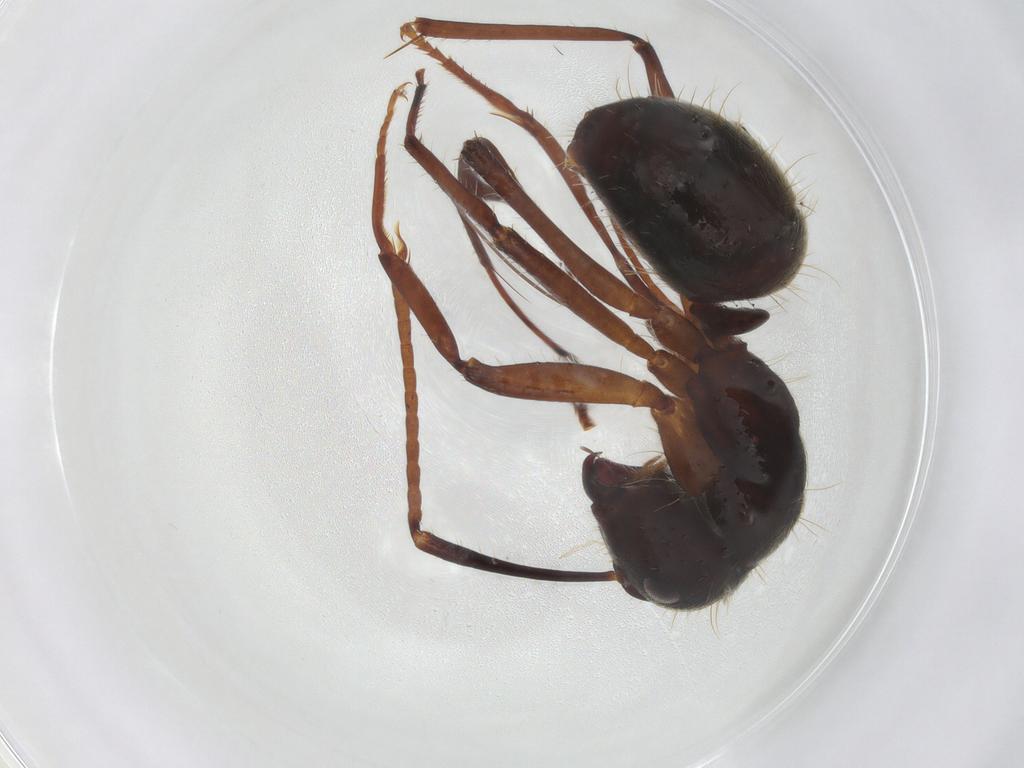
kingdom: Animalia
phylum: Arthropoda
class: Insecta
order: Hymenoptera
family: Formicidae
